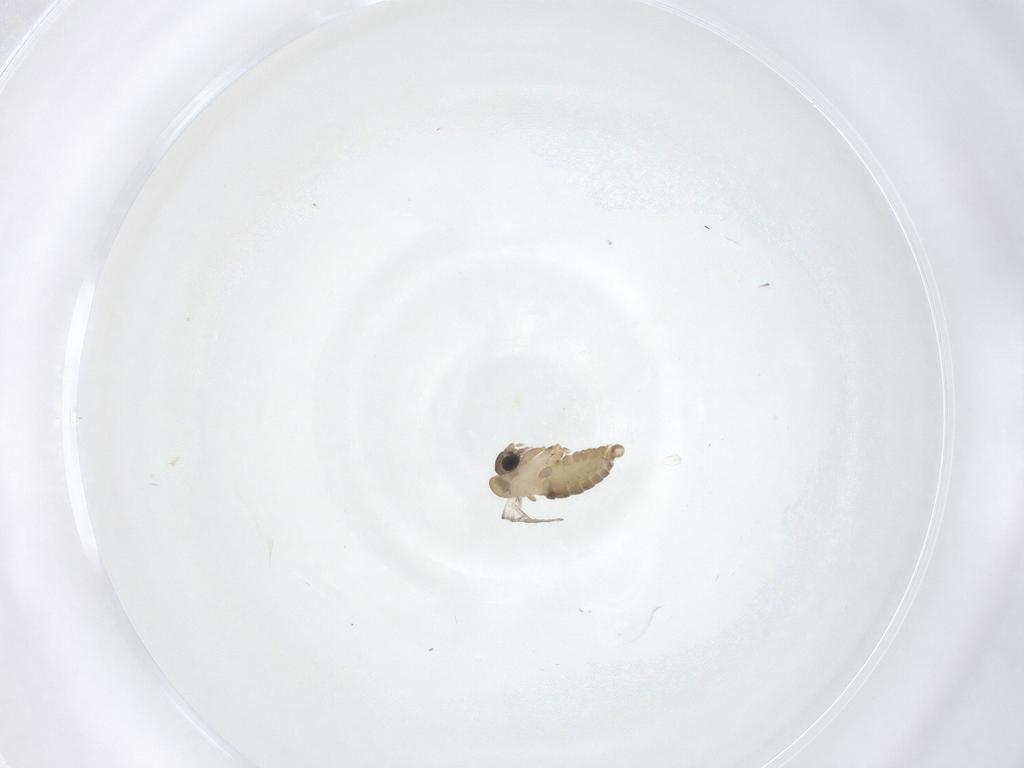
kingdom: Animalia
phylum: Arthropoda
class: Insecta
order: Diptera
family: Psychodidae
